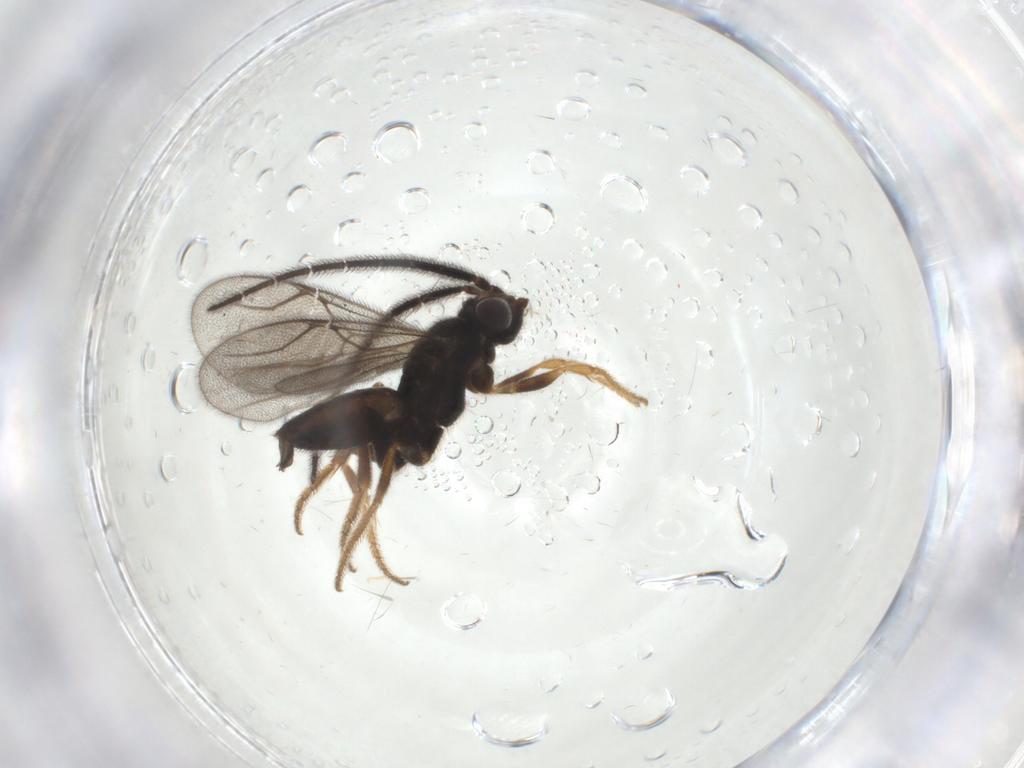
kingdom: Animalia
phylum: Arthropoda
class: Insecta
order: Hymenoptera
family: Dryinidae
